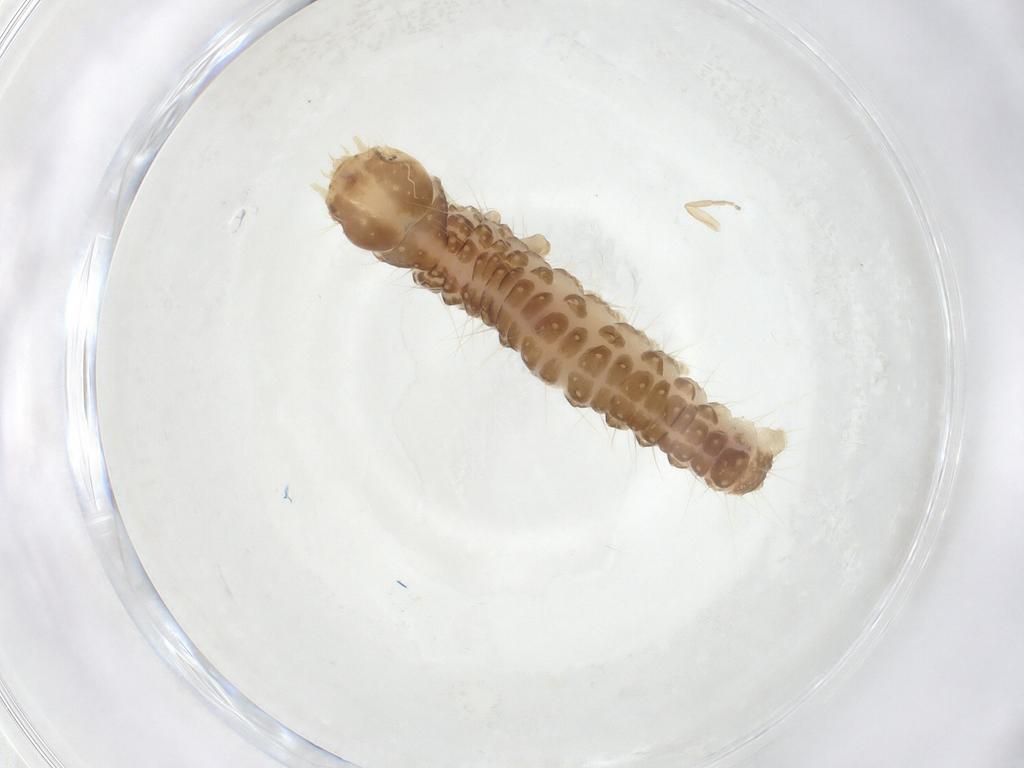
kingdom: Animalia
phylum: Arthropoda
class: Insecta
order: Lepidoptera
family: Crambidae
